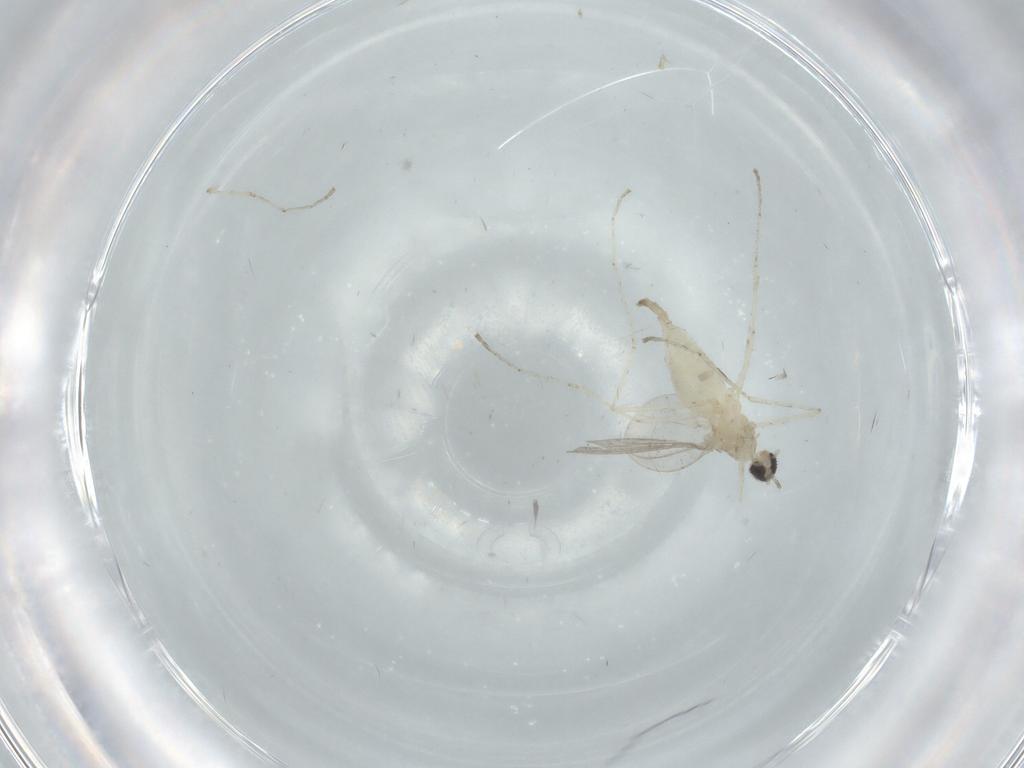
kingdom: Animalia
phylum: Arthropoda
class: Insecta
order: Diptera
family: Cecidomyiidae
